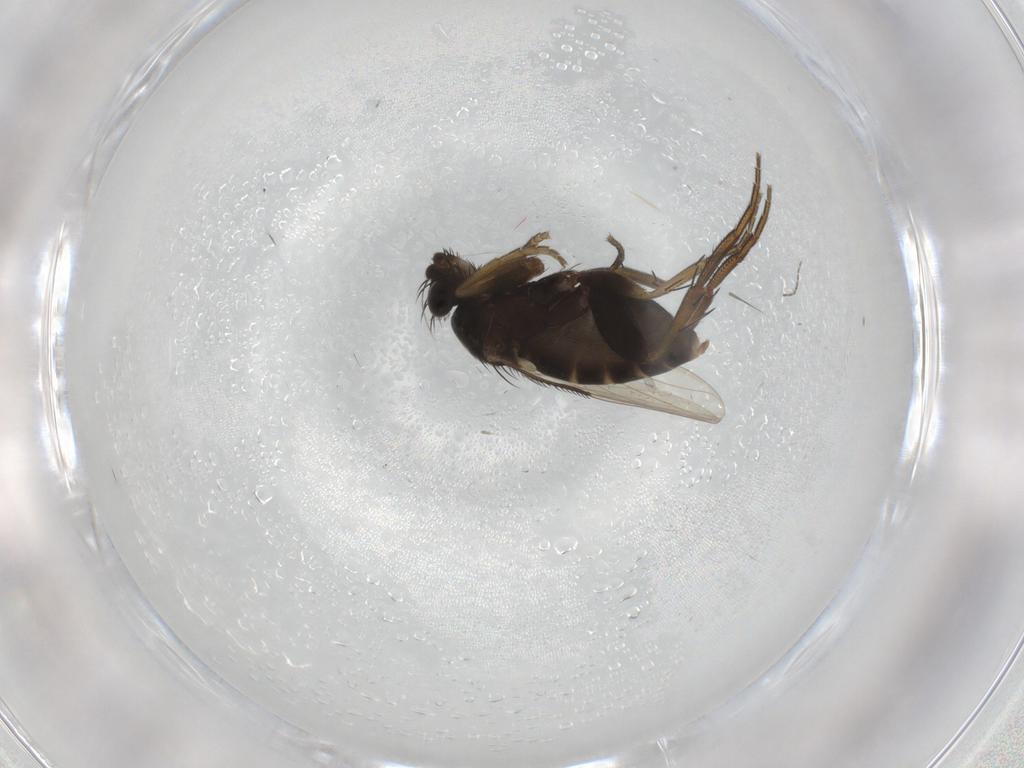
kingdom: Animalia
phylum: Arthropoda
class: Insecta
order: Diptera
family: Phoridae
